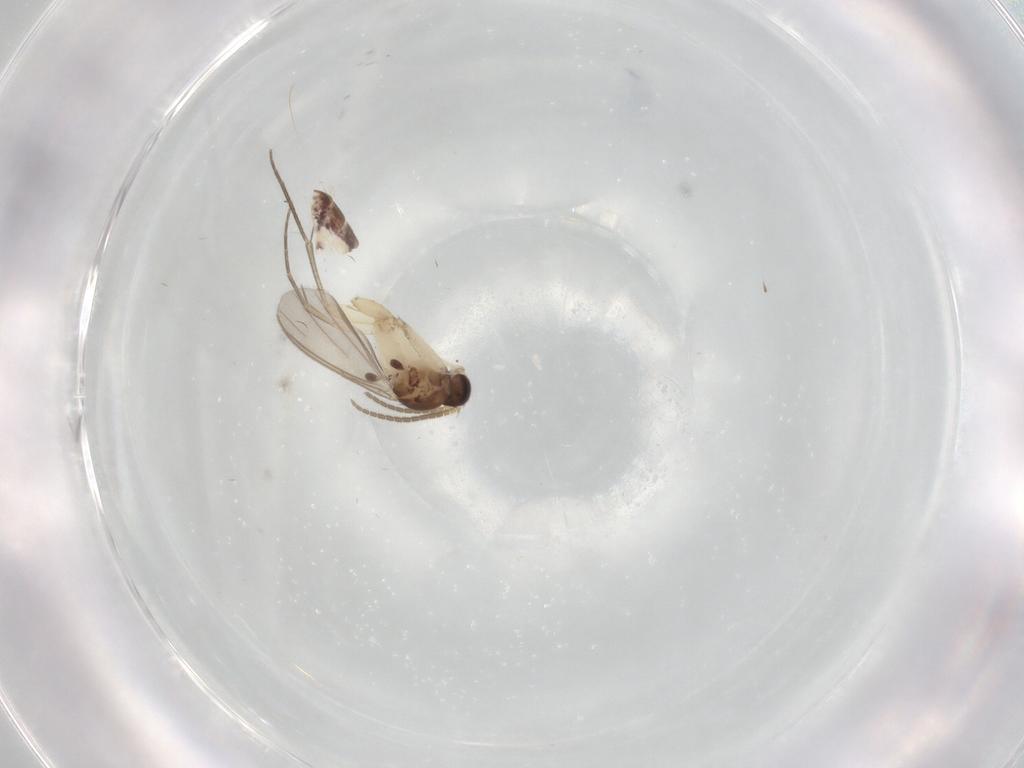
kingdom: Animalia
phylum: Arthropoda
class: Insecta
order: Diptera
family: Mycetophilidae
